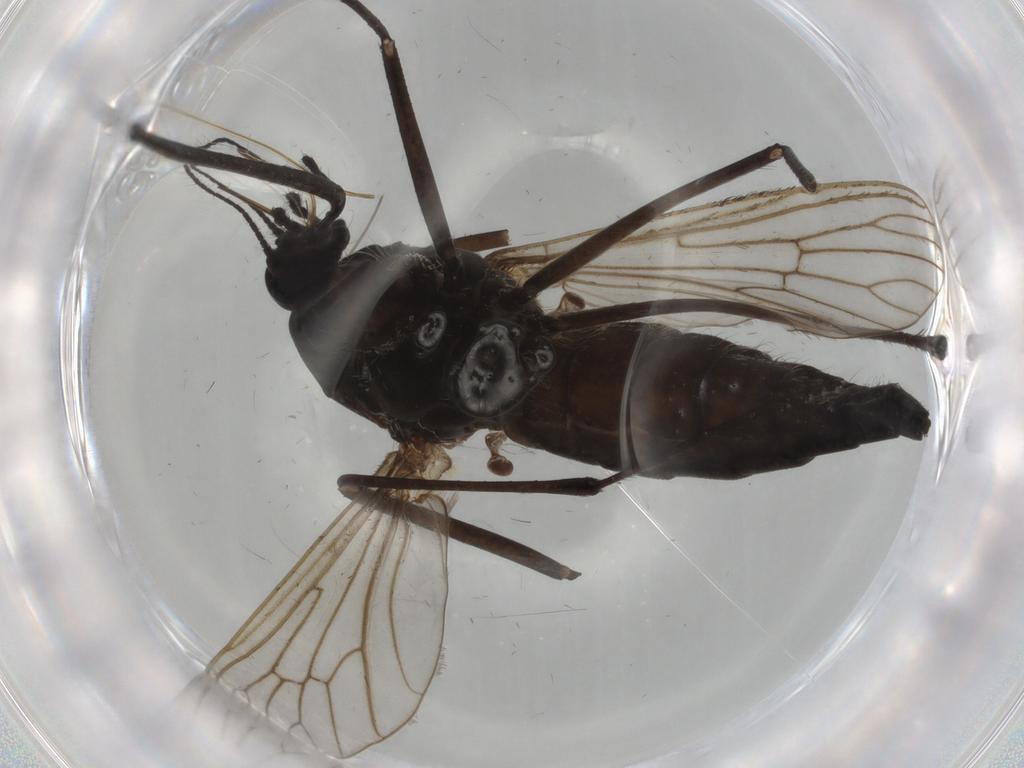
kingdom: Animalia
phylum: Arthropoda
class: Insecta
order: Diptera
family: Culicidae
